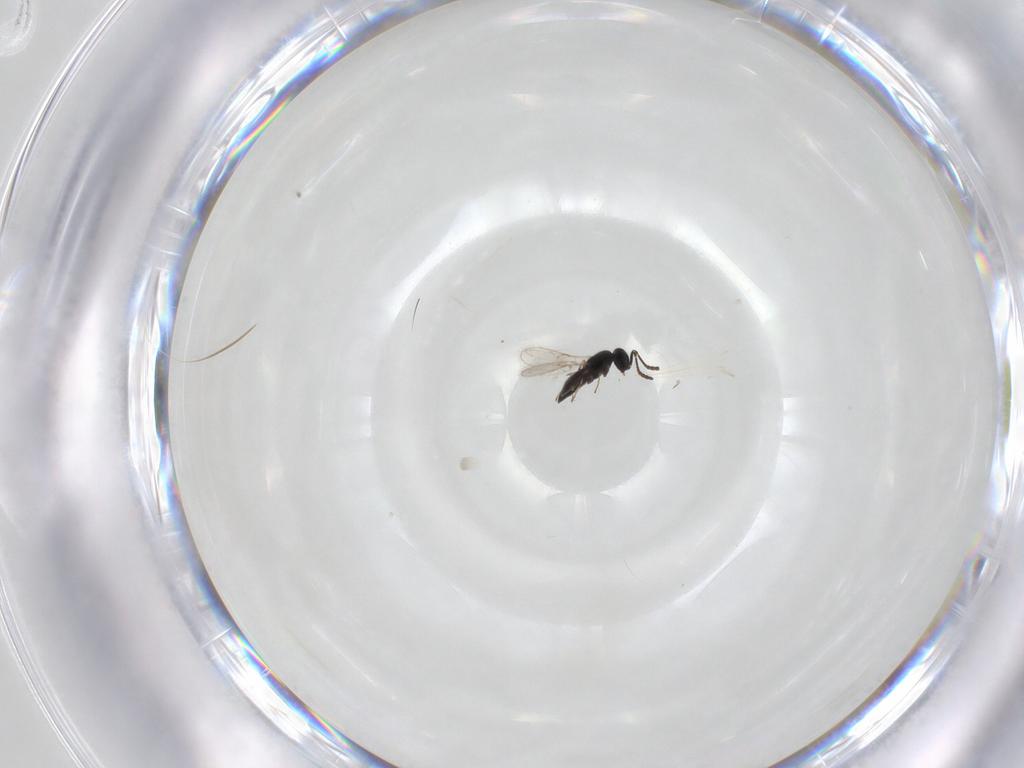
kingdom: Animalia
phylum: Arthropoda
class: Insecta
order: Hymenoptera
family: Scelionidae
